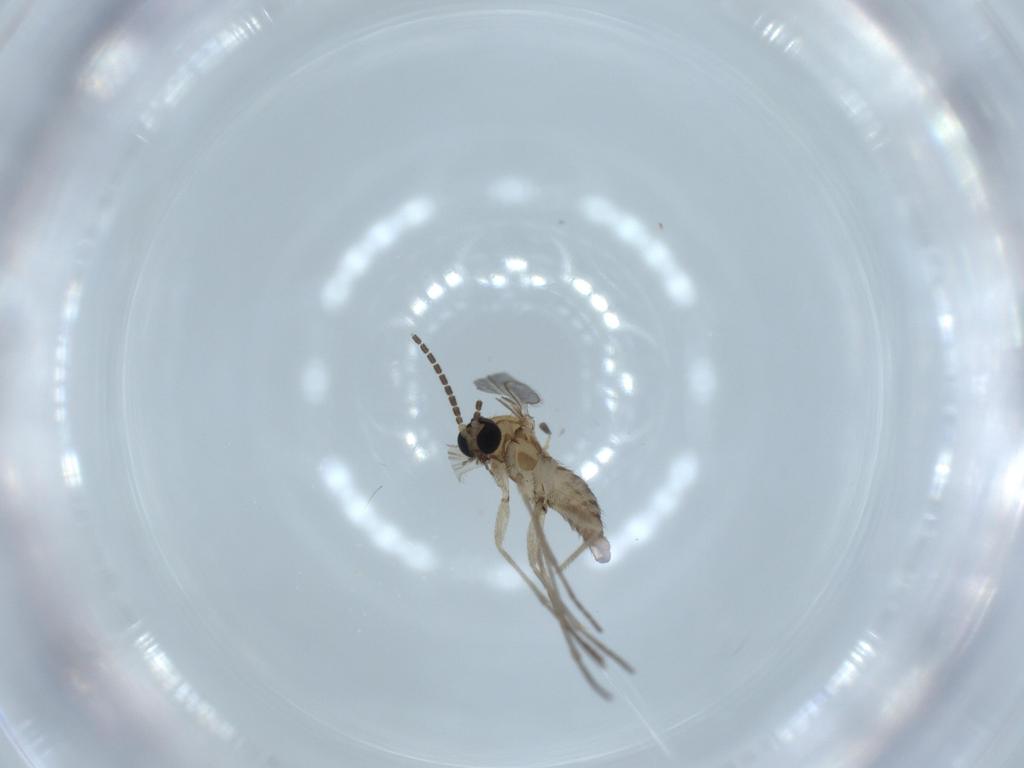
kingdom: Animalia
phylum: Arthropoda
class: Insecta
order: Diptera
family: Sciaridae
